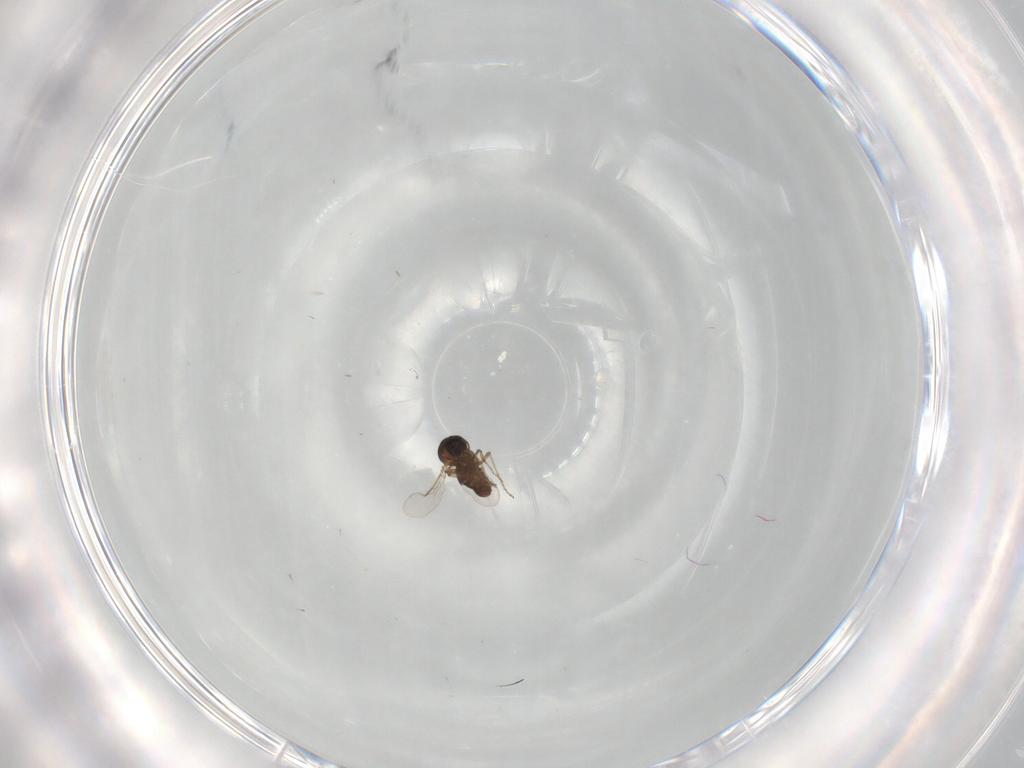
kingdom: Animalia
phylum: Arthropoda
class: Insecta
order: Diptera
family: Ceratopogonidae
